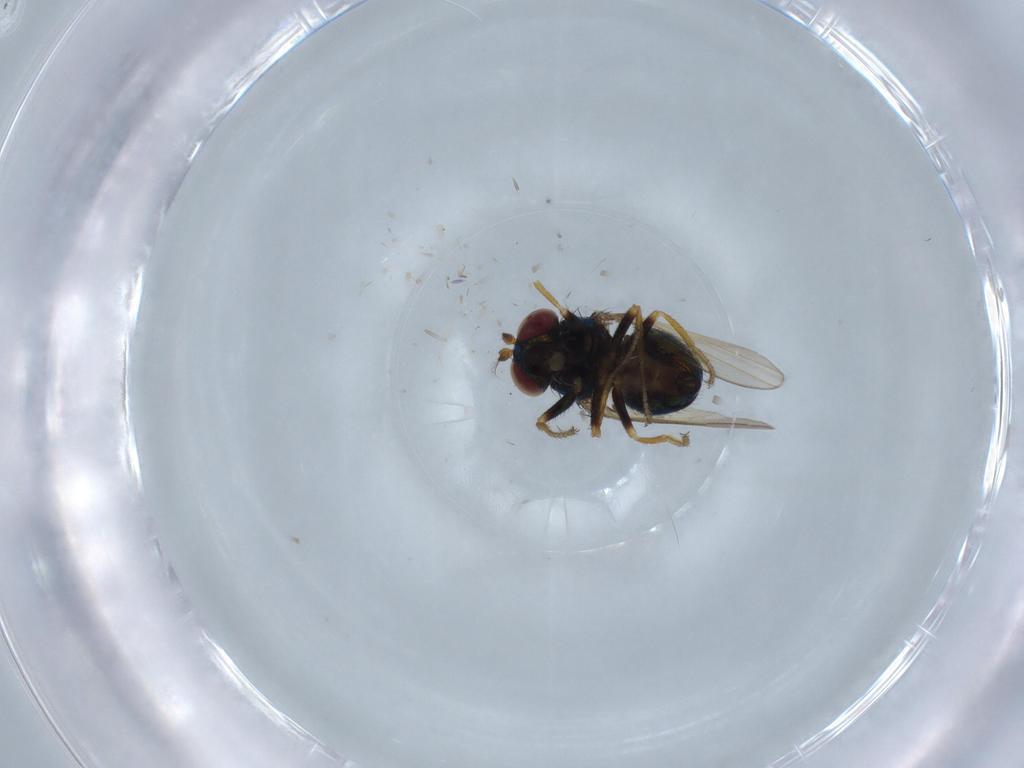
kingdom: Animalia
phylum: Arthropoda
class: Insecta
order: Diptera
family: Ephydridae
